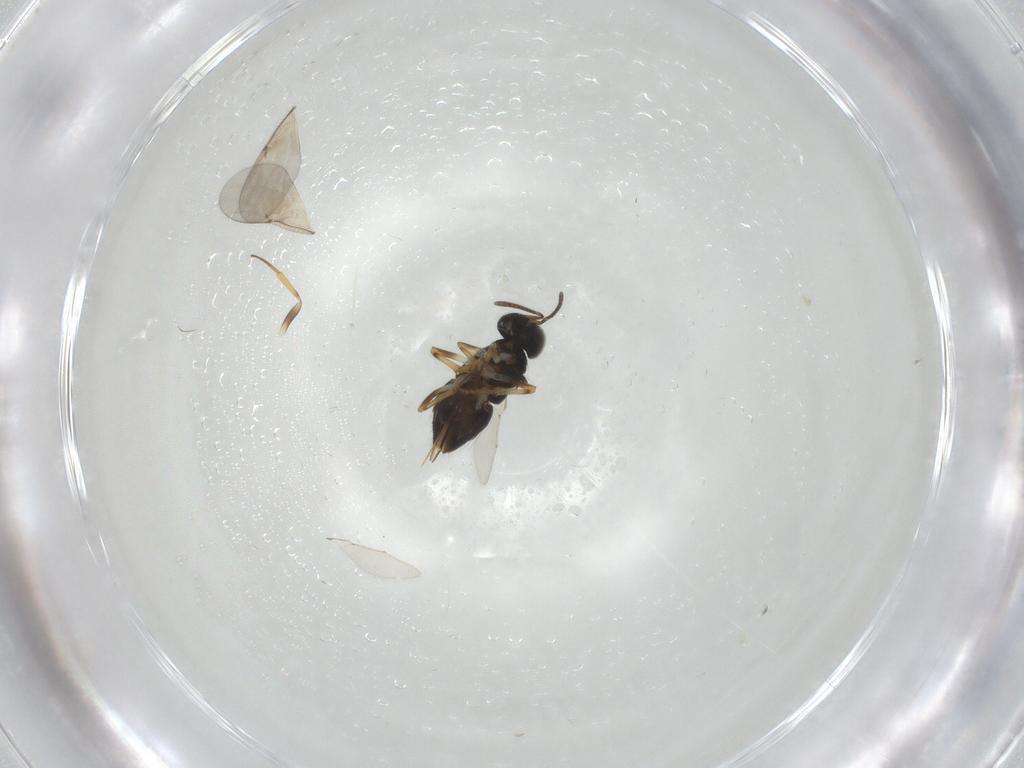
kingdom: Animalia
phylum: Arthropoda
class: Insecta
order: Hymenoptera
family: Encyrtidae
